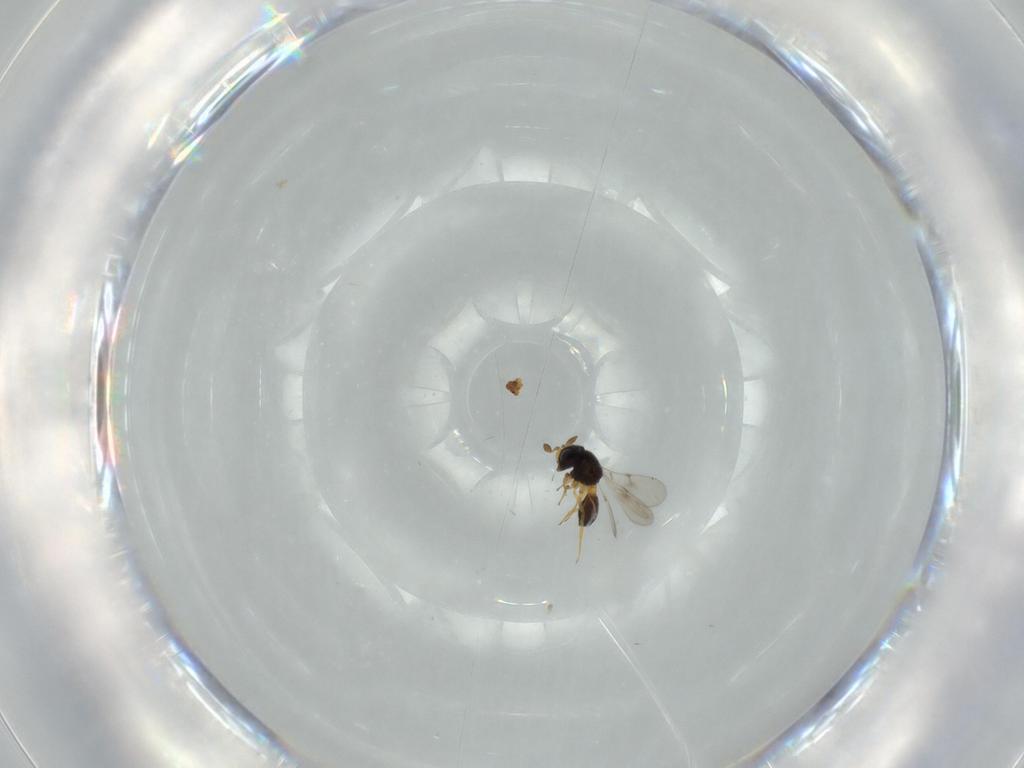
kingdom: Animalia
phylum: Arthropoda
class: Insecta
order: Hymenoptera
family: Scelionidae
